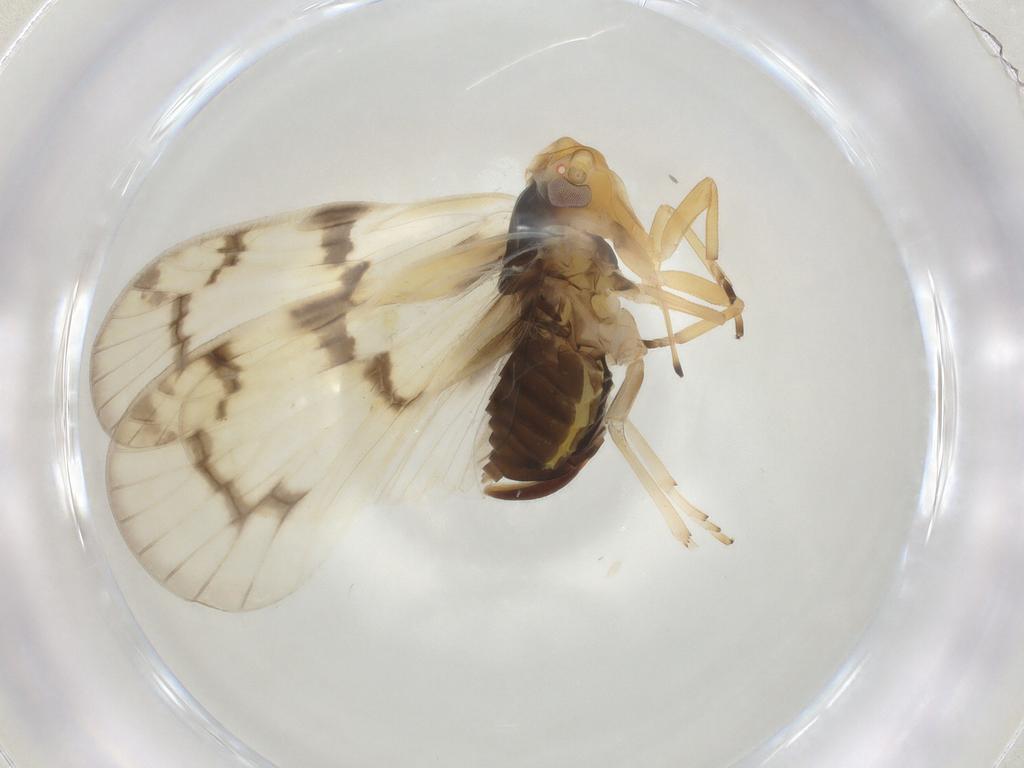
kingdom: Animalia
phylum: Arthropoda
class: Insecta
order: Hemiptera
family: Cixiidae
